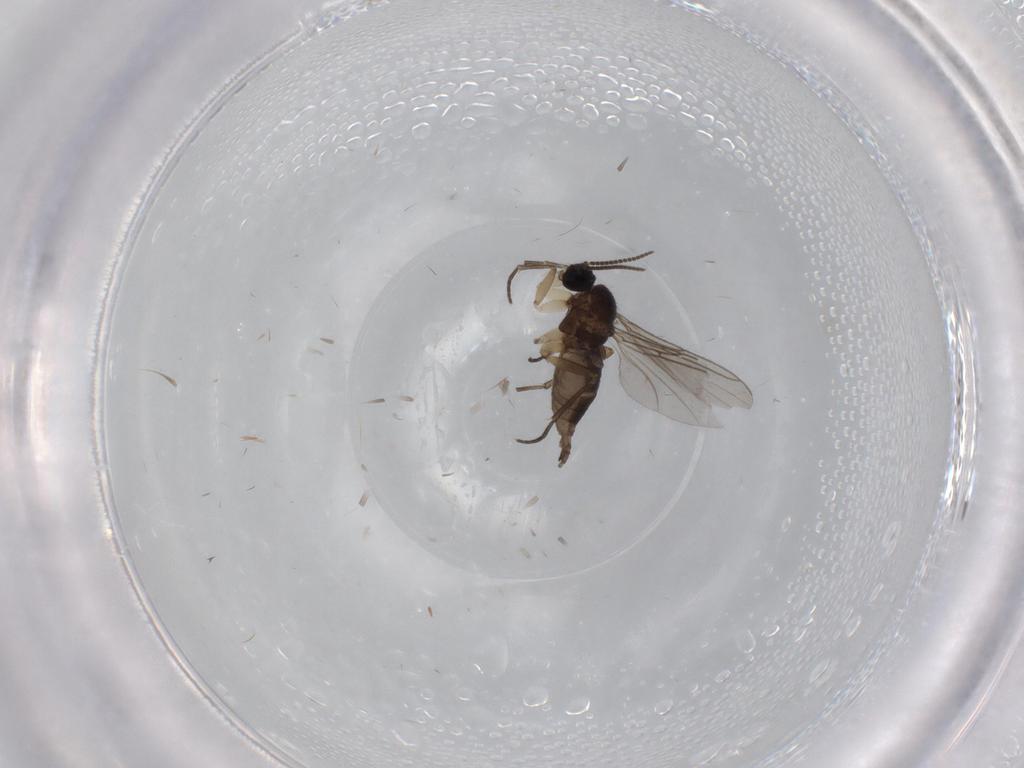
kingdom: Animalia
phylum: Arthropoda
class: Insecta
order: Diptera
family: Sciaridae
